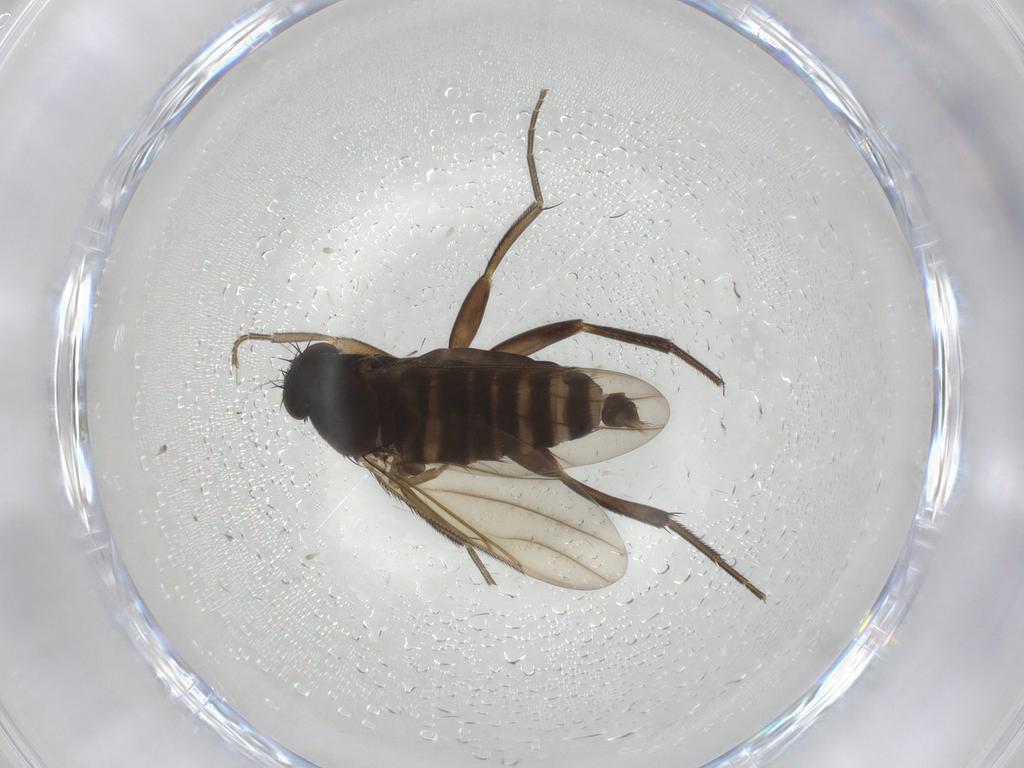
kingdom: Animalia
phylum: Arthropoda
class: Insecta
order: Diptera
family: Phoridae
